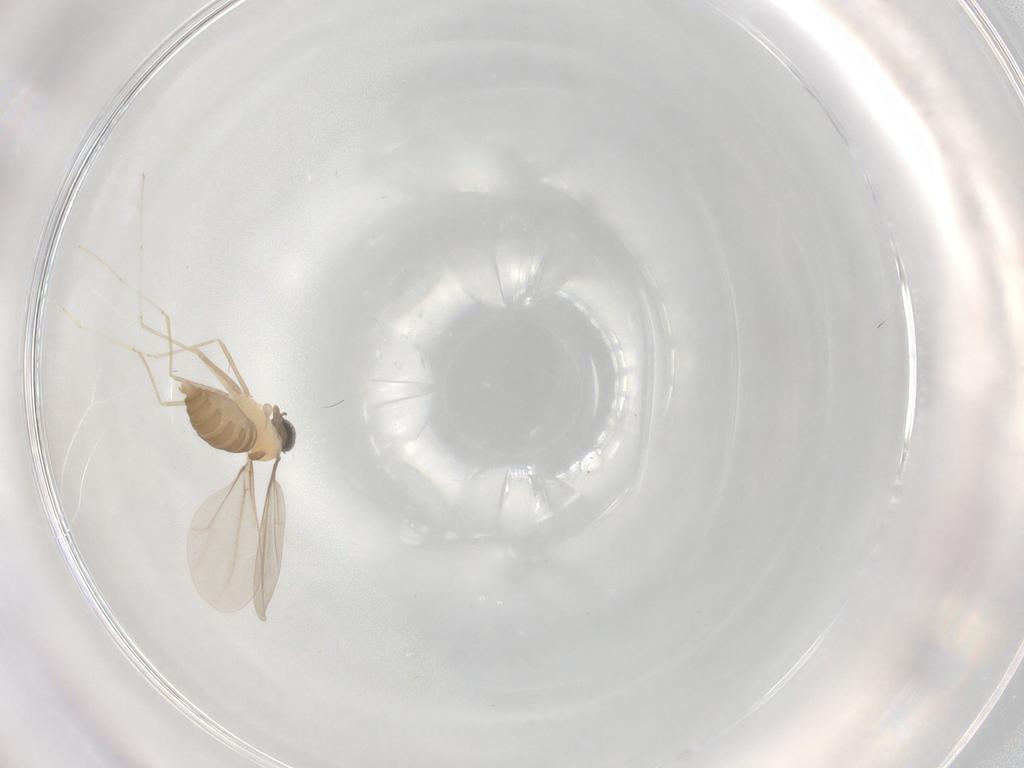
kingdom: Animalia
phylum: Arthropoda
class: Insecta
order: Diptera
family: Cecidomyiidae
